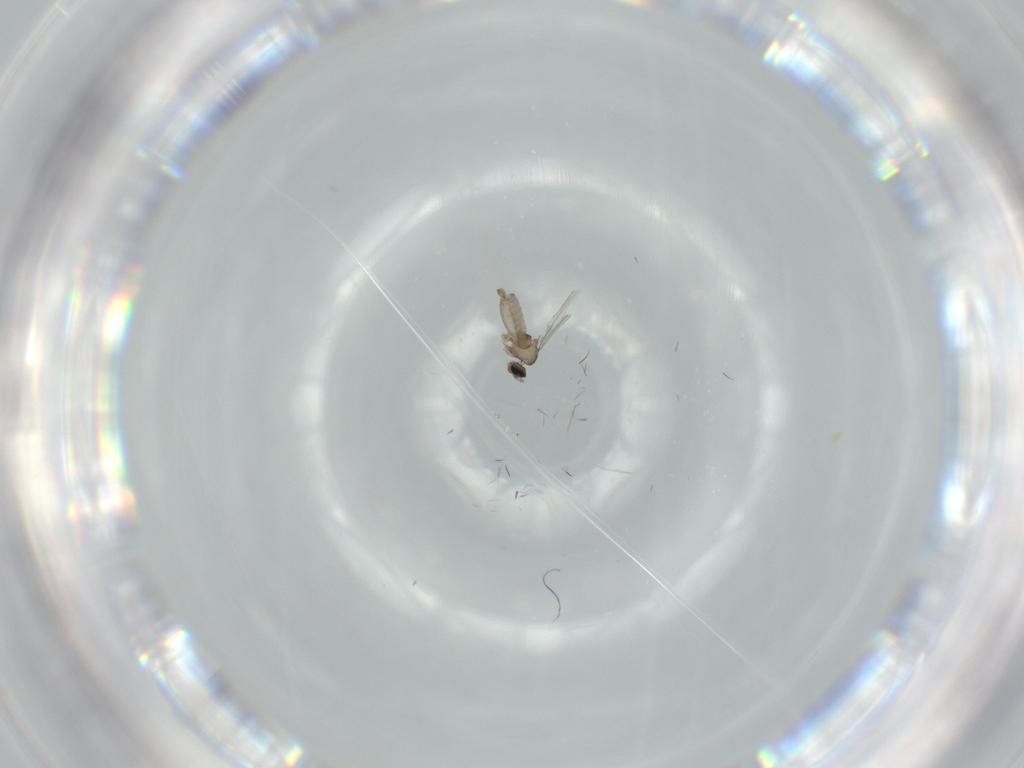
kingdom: Animalia
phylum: Arthropoda
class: Insecta
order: Diptera
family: Cecidomyiidae
